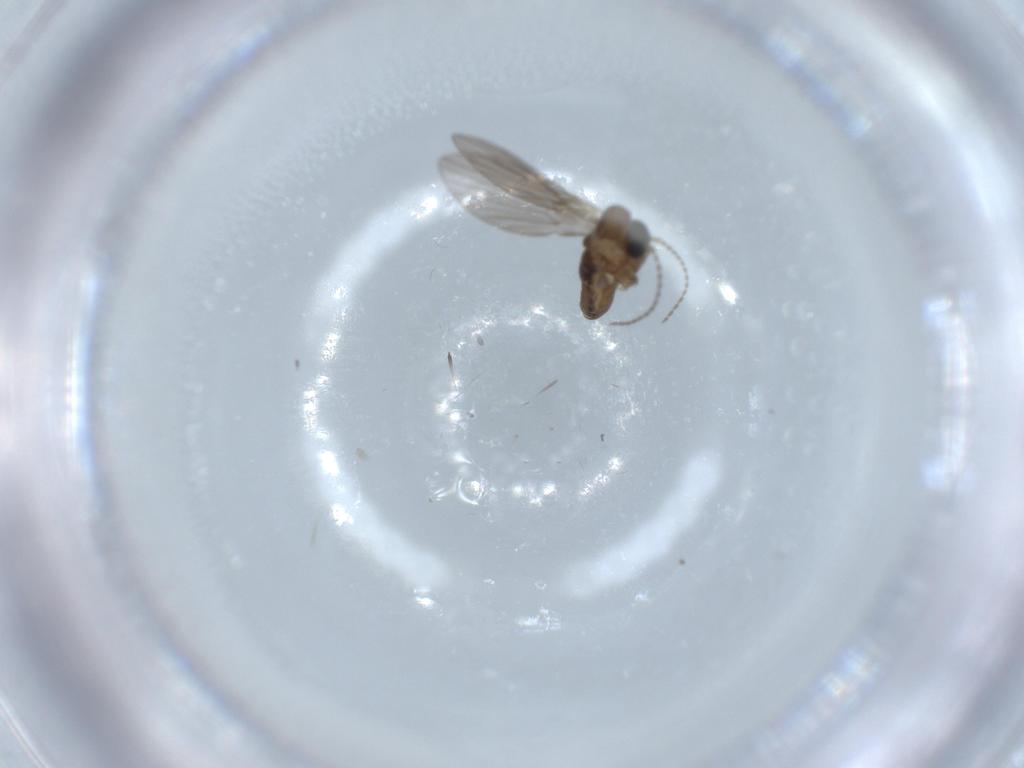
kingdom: Animalia
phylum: Arthropoda
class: Insecta
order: Diptera
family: Psychodidae
